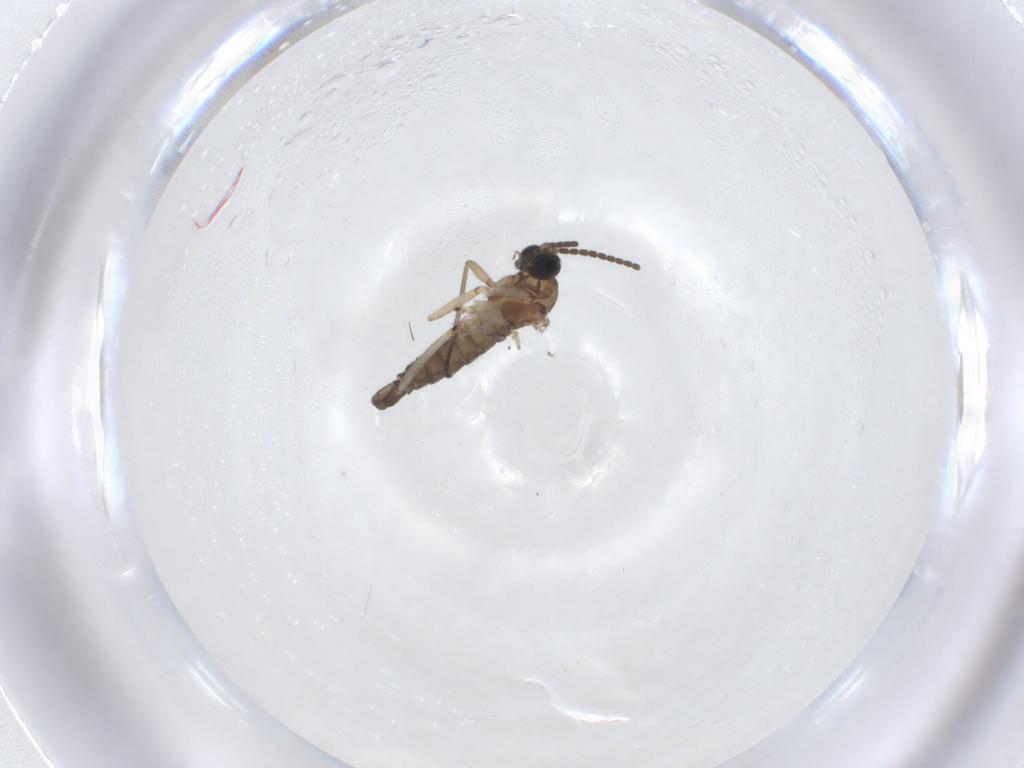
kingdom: Animalia
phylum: Arthropoda
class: Insecta
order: Diptera
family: Sciaridae
